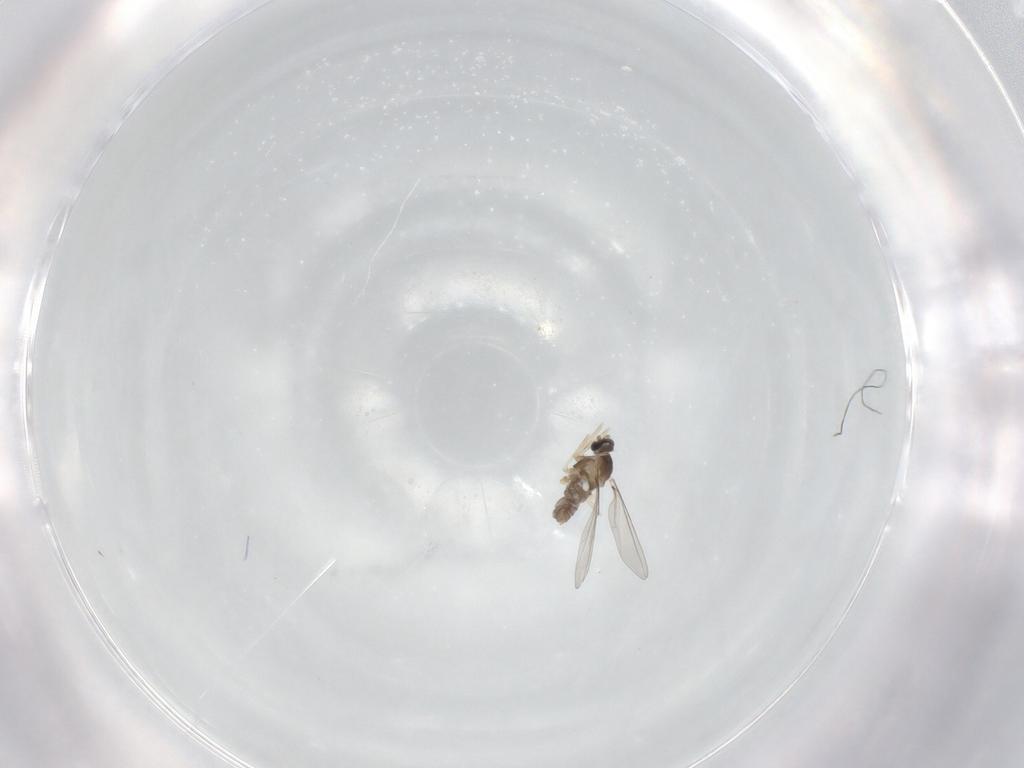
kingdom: Animalia
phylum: Arthropoda
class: Insecta
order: Diptera
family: Cecidomyiidae
